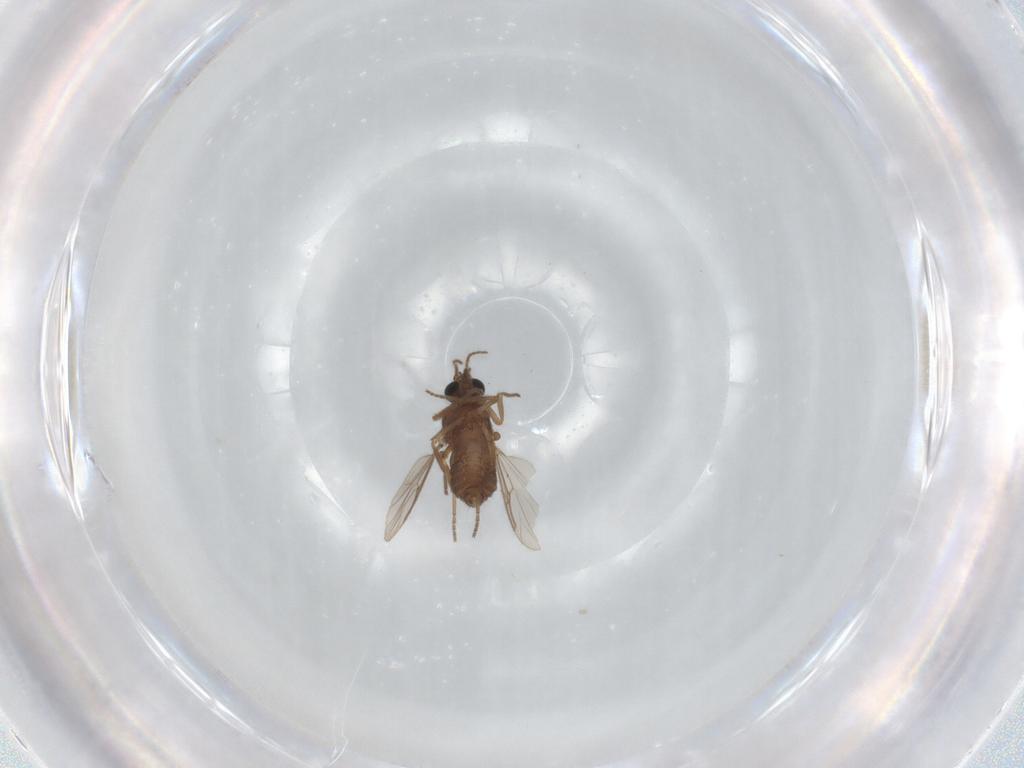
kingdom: Animalia
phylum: Arthropoda
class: Insecta
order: Diptera
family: Ceratopogonidae
